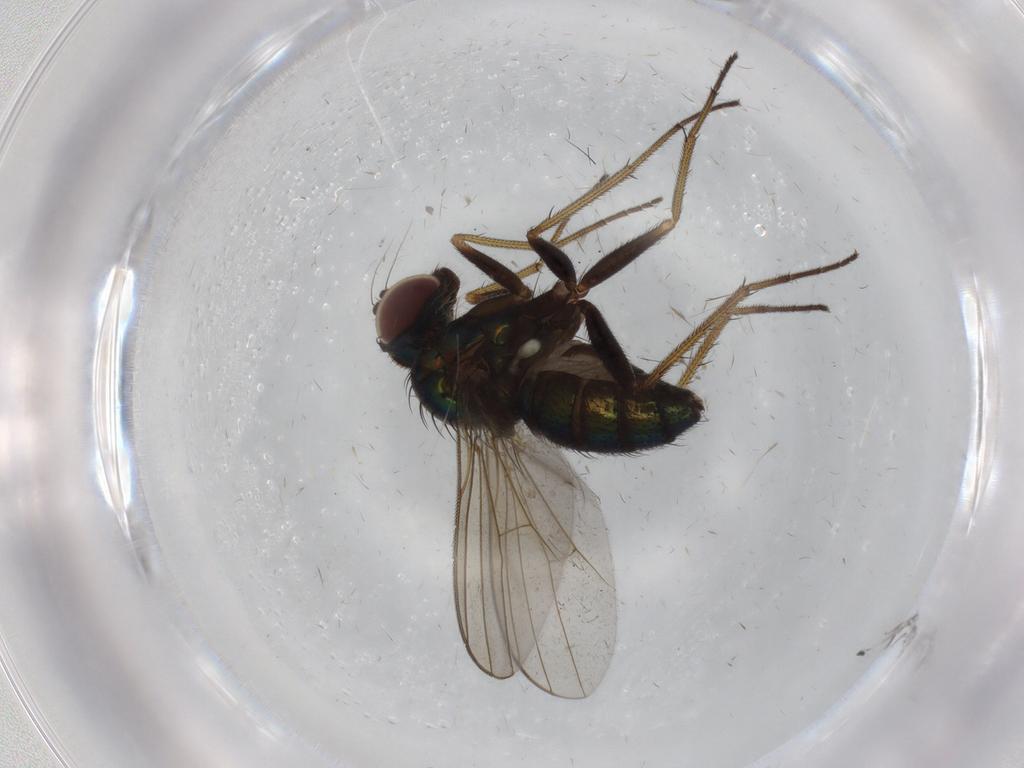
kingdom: Animalia
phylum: Arthropoda
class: Insecta
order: Diptera
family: Dolichopodidae
